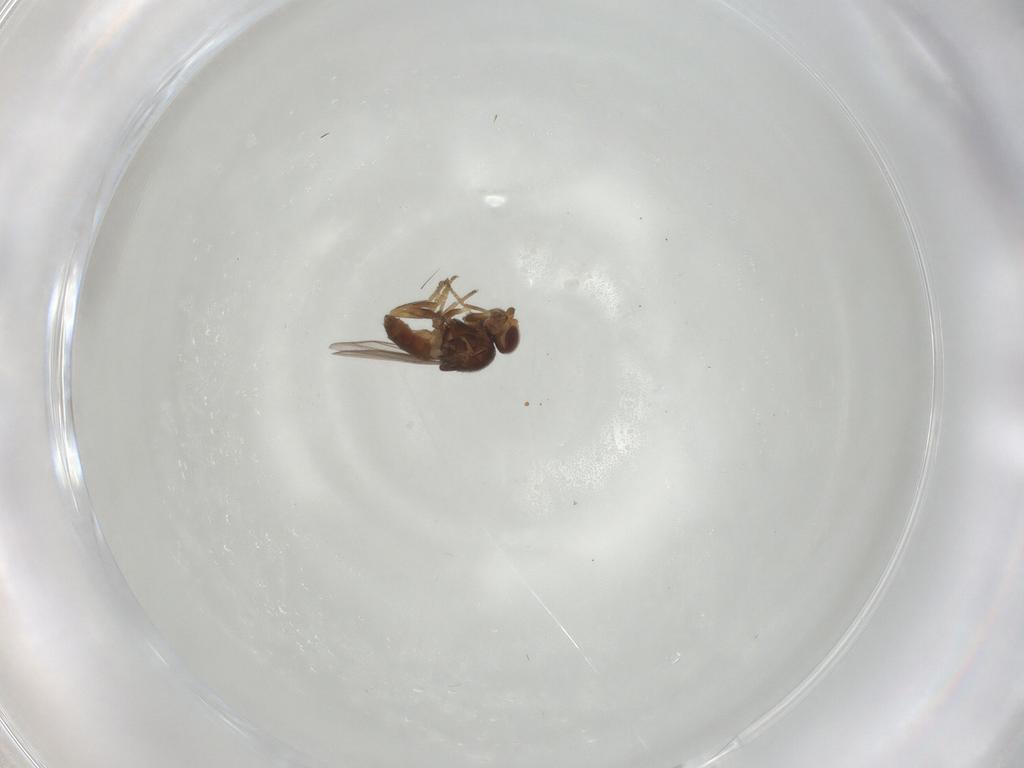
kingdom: Animalia
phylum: Arthropoda
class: Insecta
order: Diptera
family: Chloropidae
